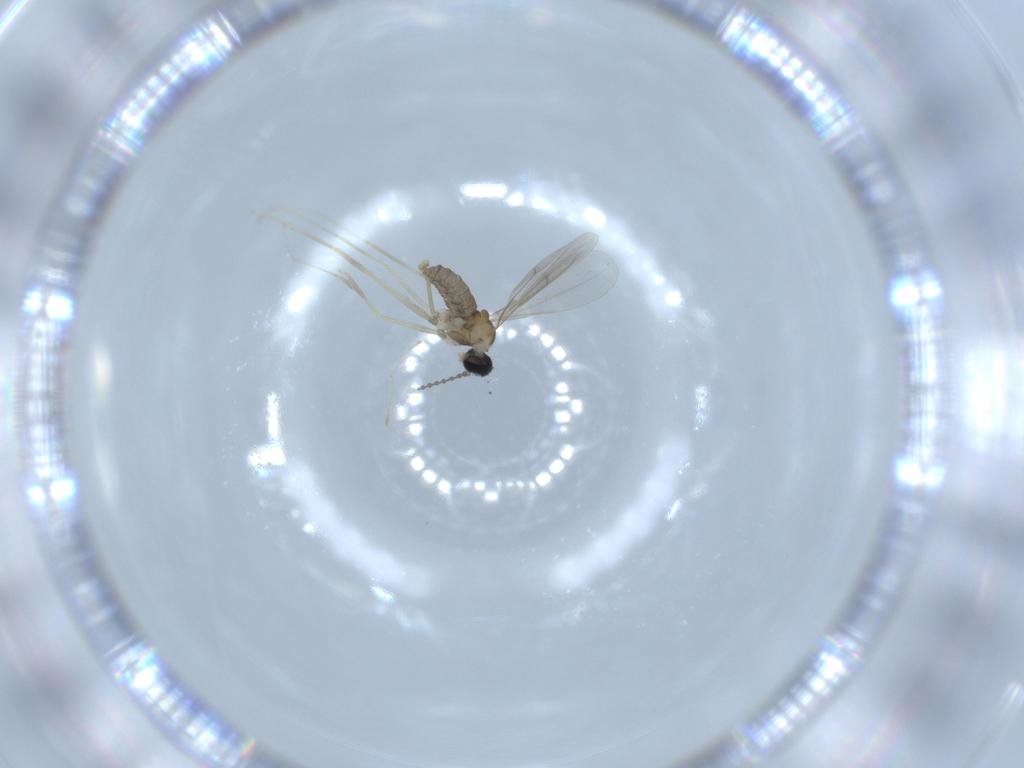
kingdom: Animalia
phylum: Arthropoda
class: Insecta
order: Diptera
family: Cecidomyiidae
